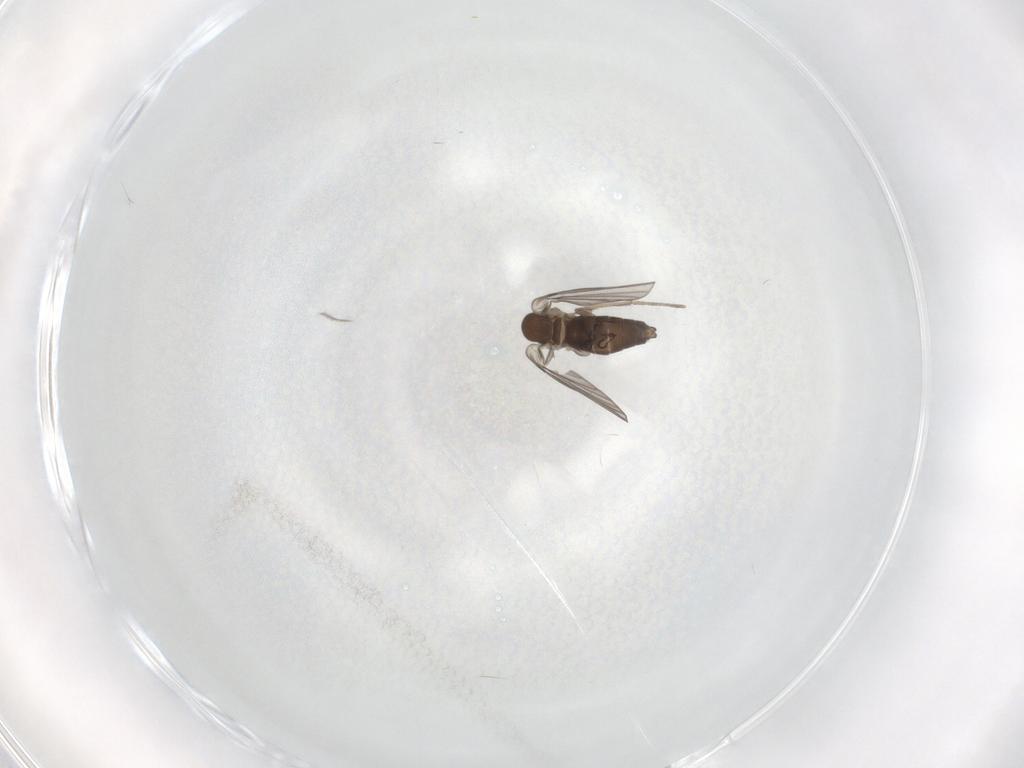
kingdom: Animalia
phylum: Arthropoda
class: Insecta
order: Diptera
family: Cecidomyiidae
